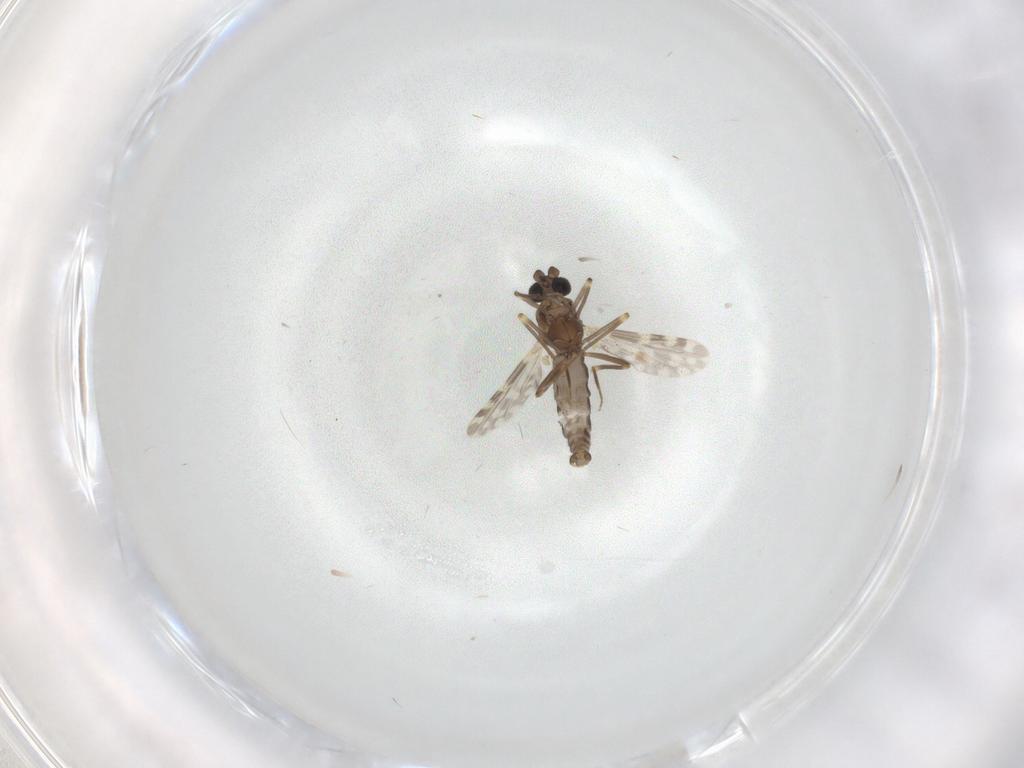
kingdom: Animalia
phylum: Arthropoda
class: Insecta
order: Diptera
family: Ceratopogonidae
